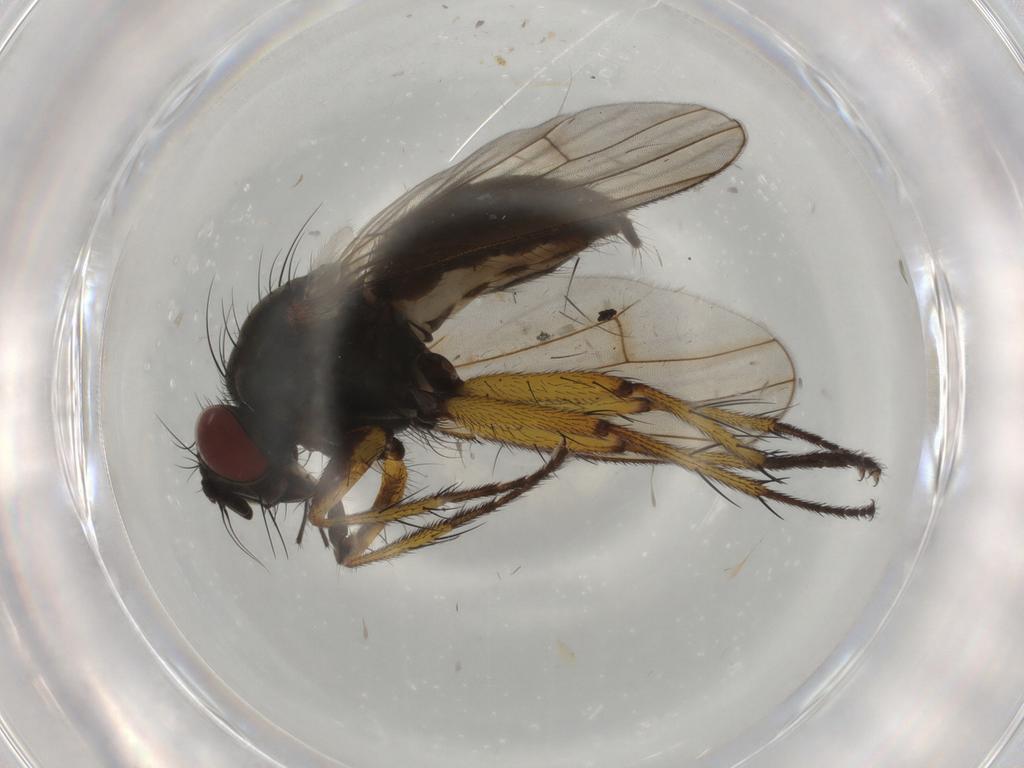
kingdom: Animalia
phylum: Arthropoda
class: Insecta
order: Diptera
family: Muscidae
